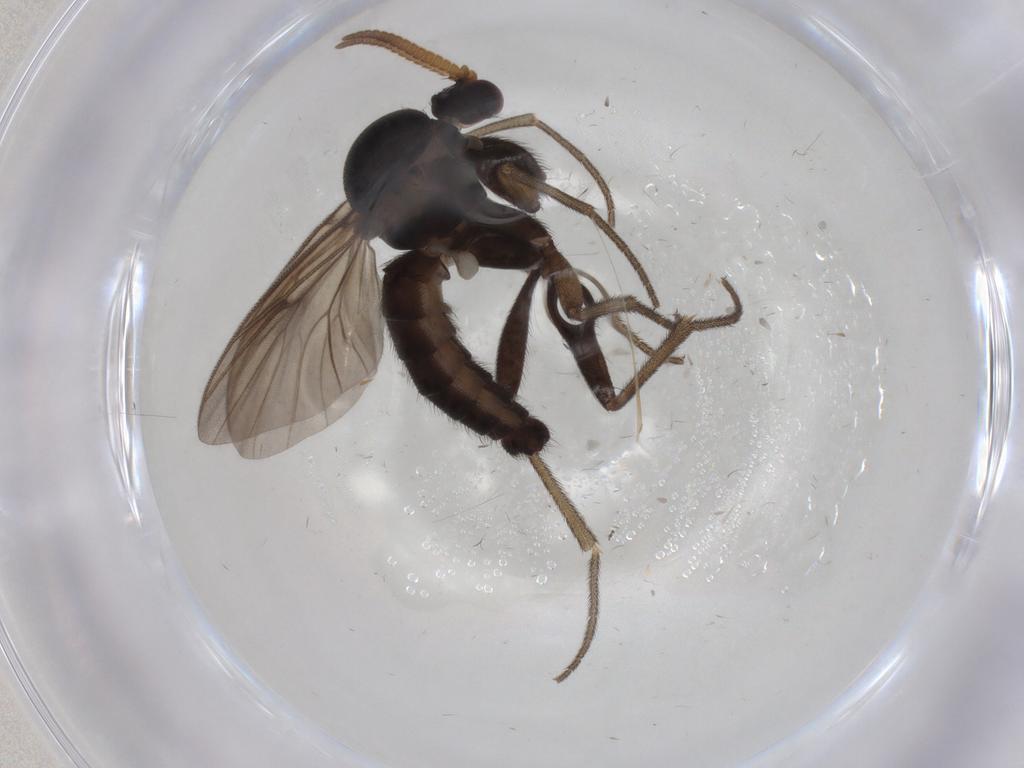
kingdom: Animalia
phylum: Arthropoda
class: Insecta
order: Diptera
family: Mycetophilidae
